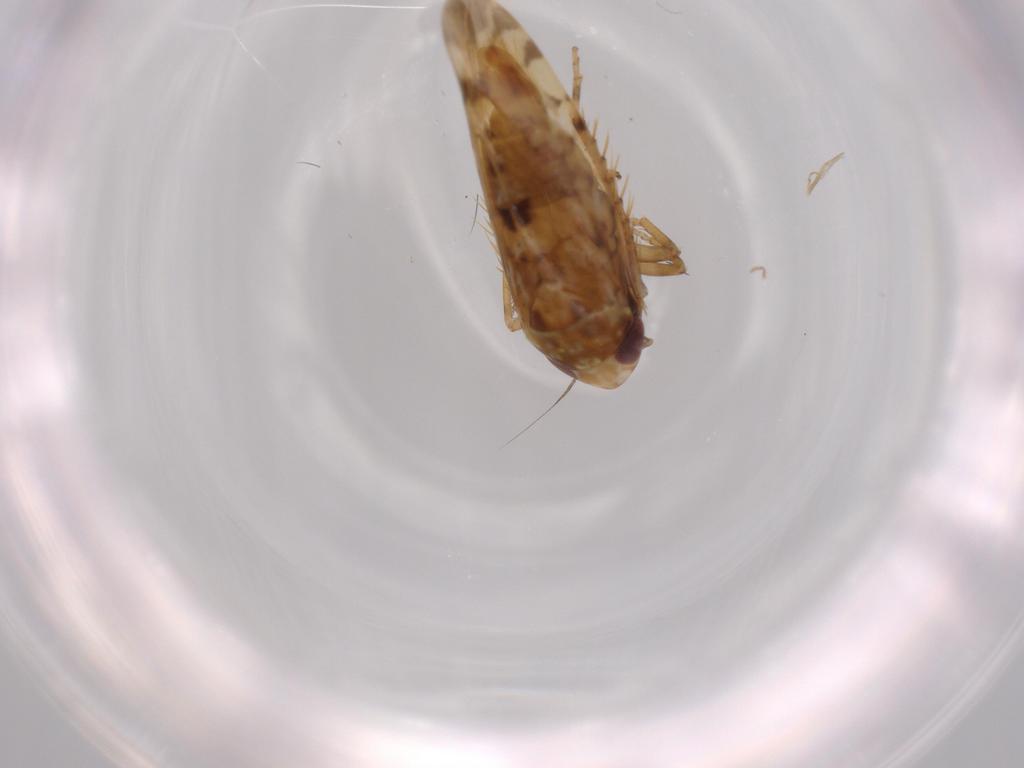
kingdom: Animalia
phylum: Arthropoda
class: Insecta
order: Hemiptera
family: Cicadellidae
